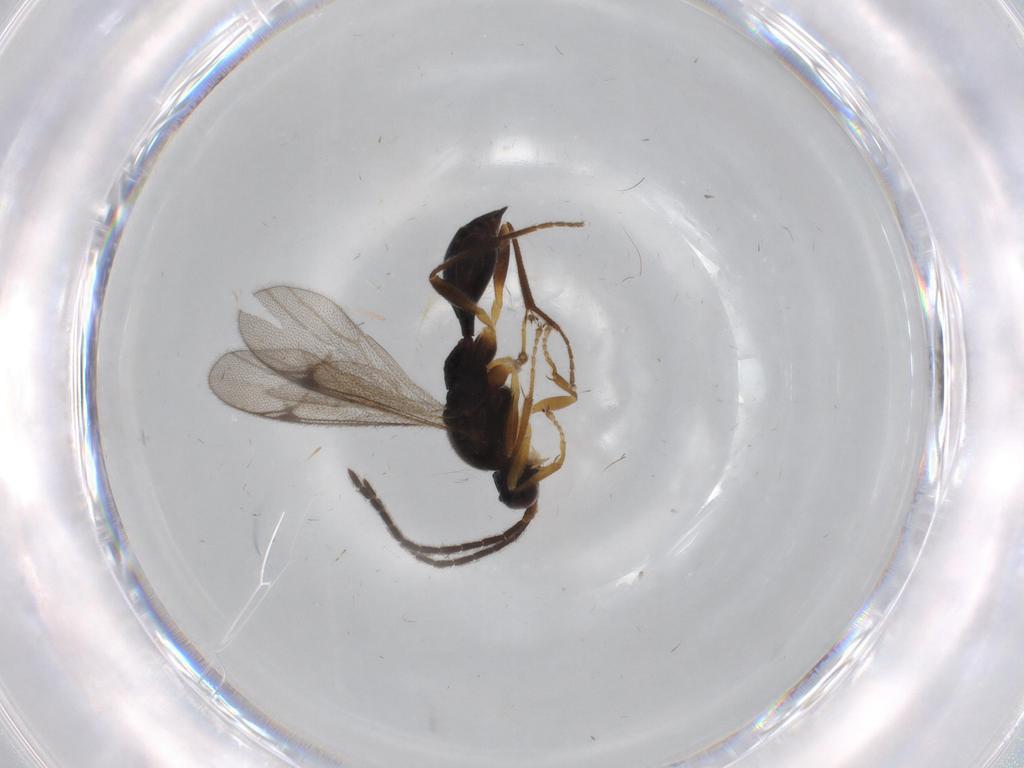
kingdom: Animalia
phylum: Arthropoda
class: Insecta
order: Hymenoptera
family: Proctotrupidae
